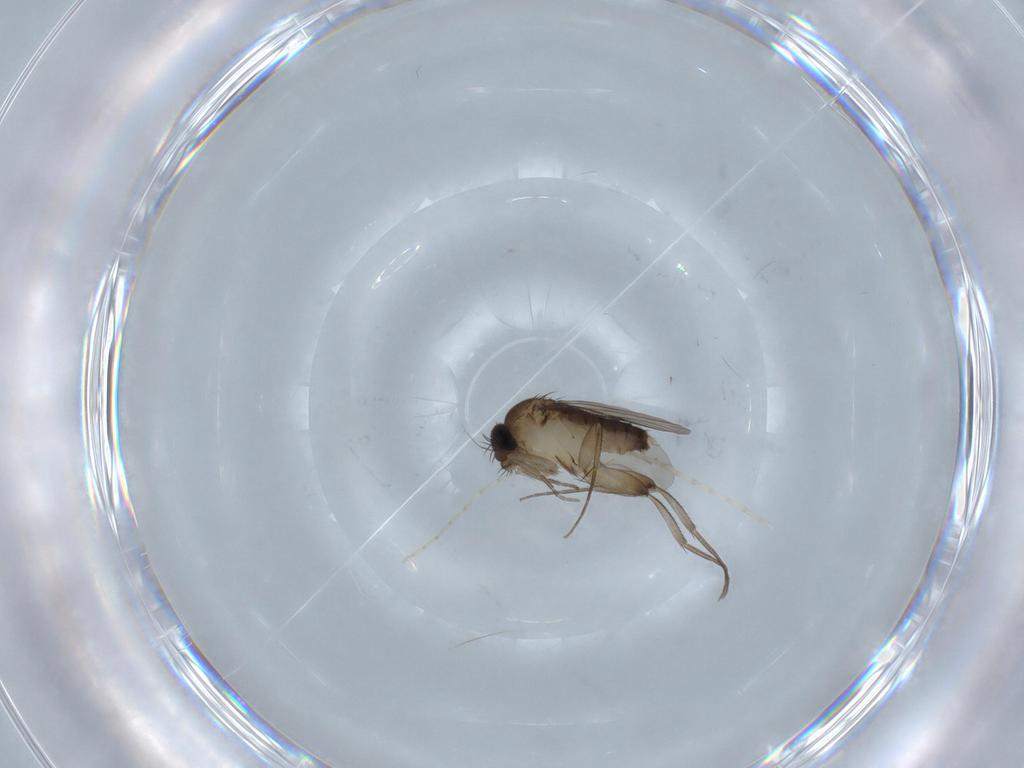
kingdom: Animalia
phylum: Arthropoda
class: Insecta
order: Diptera
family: Phoridae
